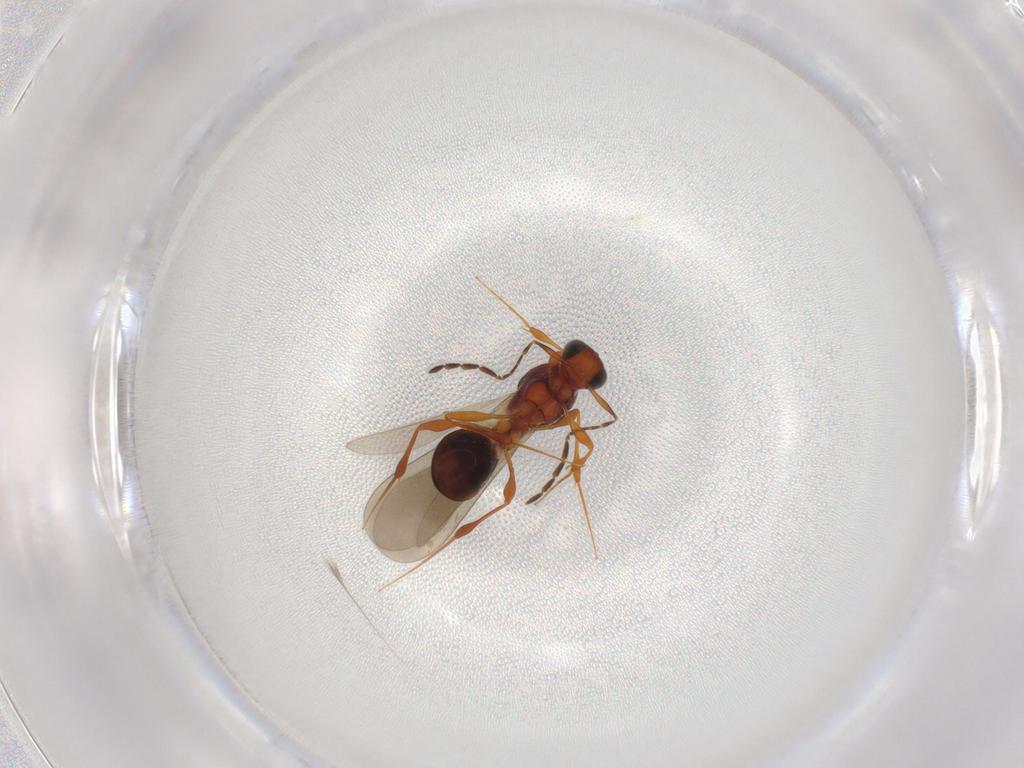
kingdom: Animalia
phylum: Arthropoda
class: Insecta
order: Hymenoptera
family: Platygastridae
